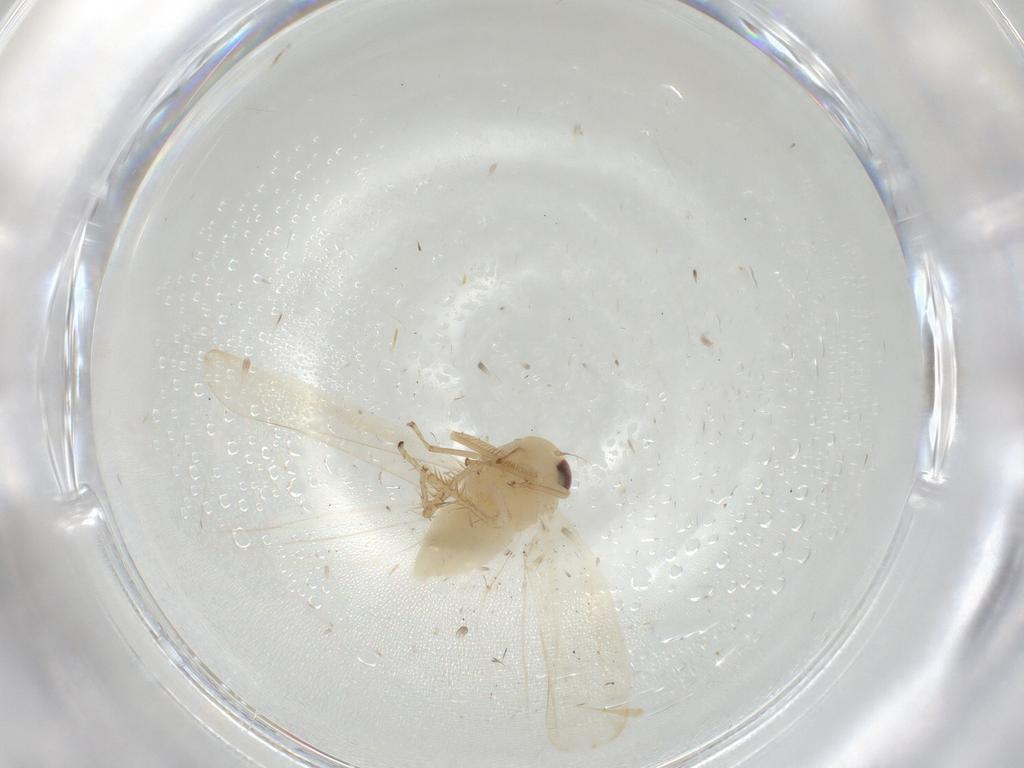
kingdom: Animalia
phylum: Arthropoda
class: Insecta
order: Hemiptera
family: Cicadellidae
